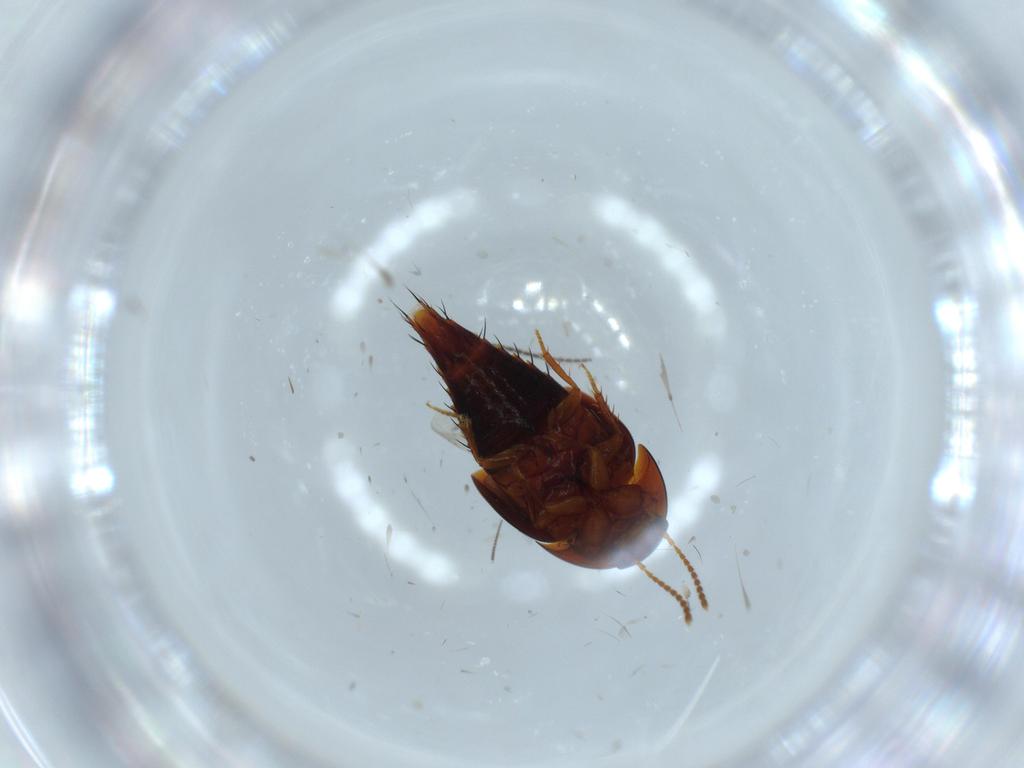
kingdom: Animalia
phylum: Arthropoda
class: Insecta
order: Coleoptera
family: Staphylinidae
